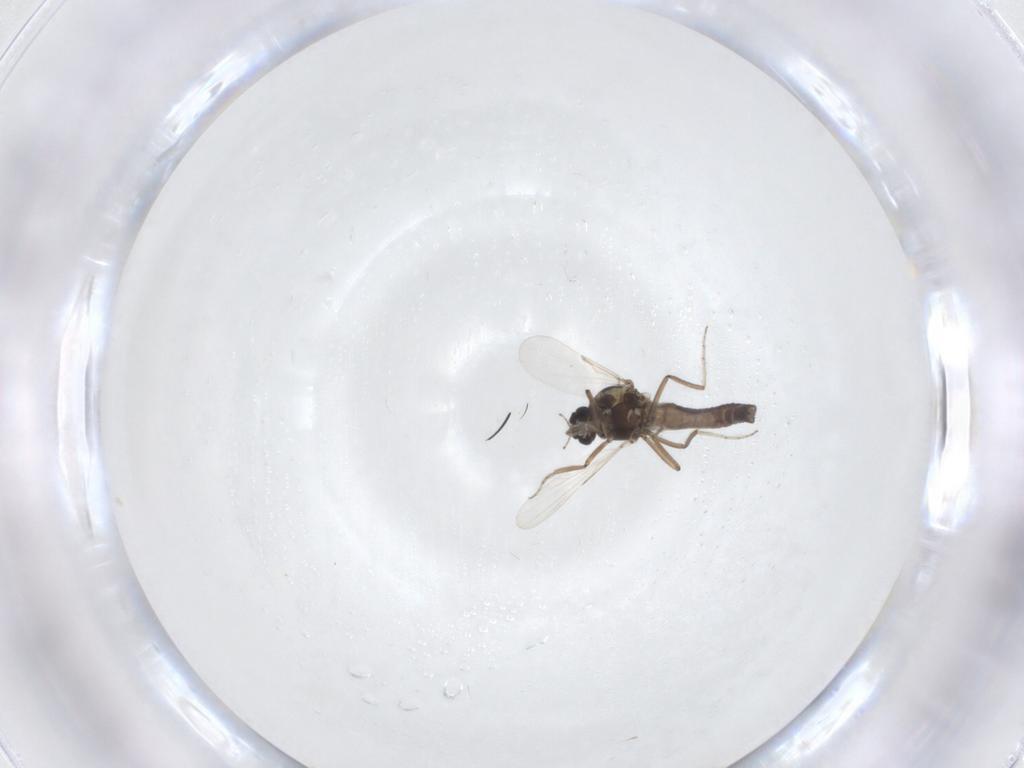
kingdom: Animalia
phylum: Arthropoda
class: Insecta
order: Diptera
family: Ceratopogonidae
